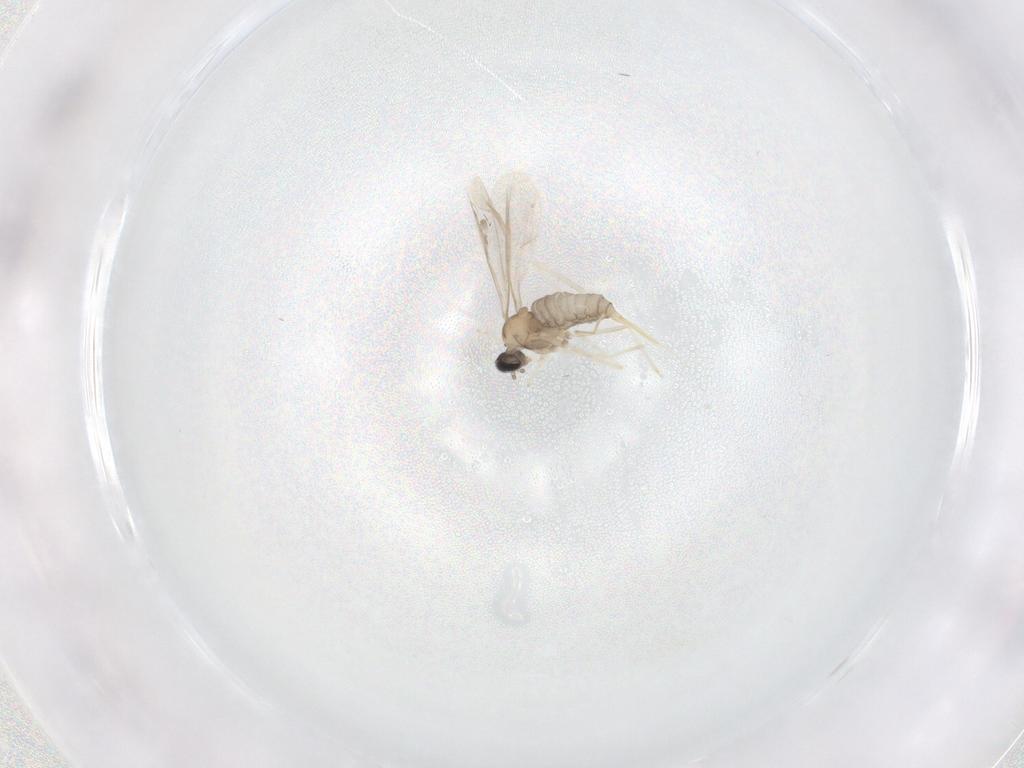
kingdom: Animalia
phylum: Arthropoda
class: Insecta
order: Diptera
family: Cecidomyiidae
